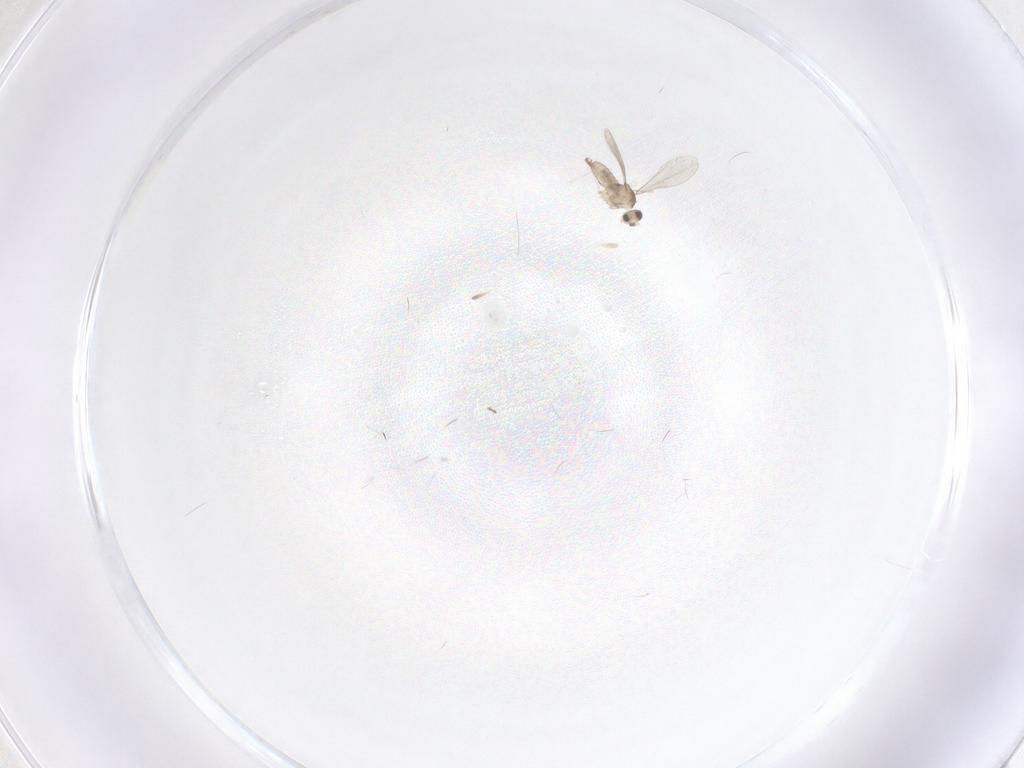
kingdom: Animalia
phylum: Arthropoda
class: Insecta
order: Diptera
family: Cecidomyiidae
